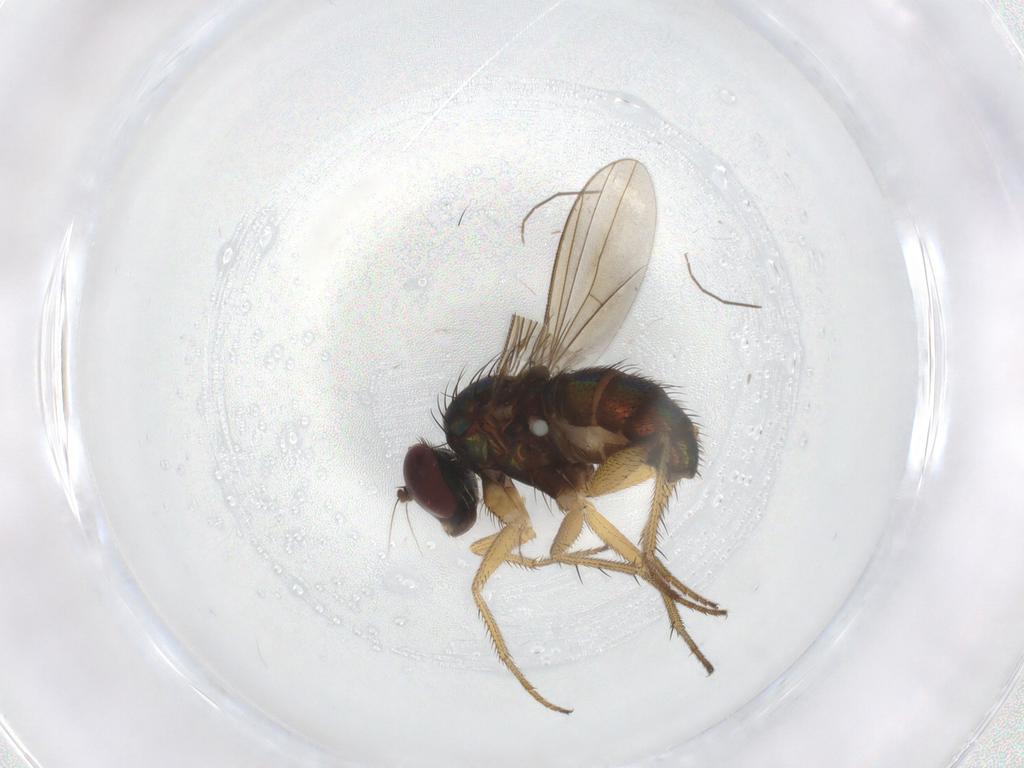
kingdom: Animalia
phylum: Arthropoda
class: Insecta
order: Diptera
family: Dolichopodidae
